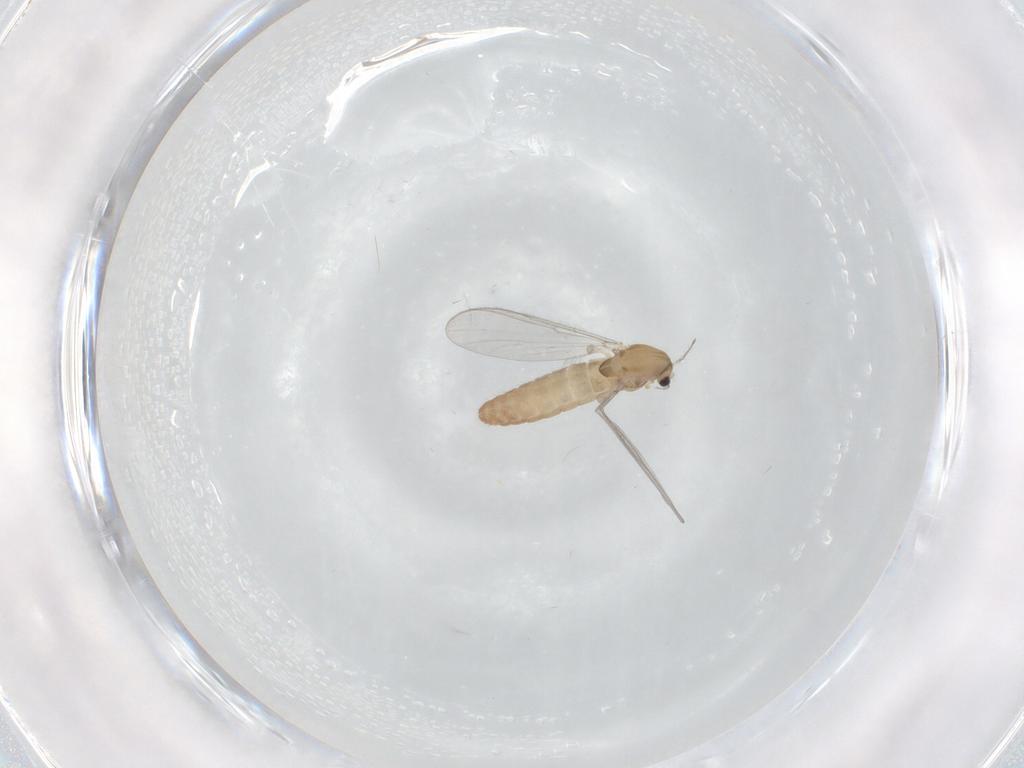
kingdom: Animalia
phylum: Arthropoda
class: Insecta
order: Diptera
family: Chironomidae
